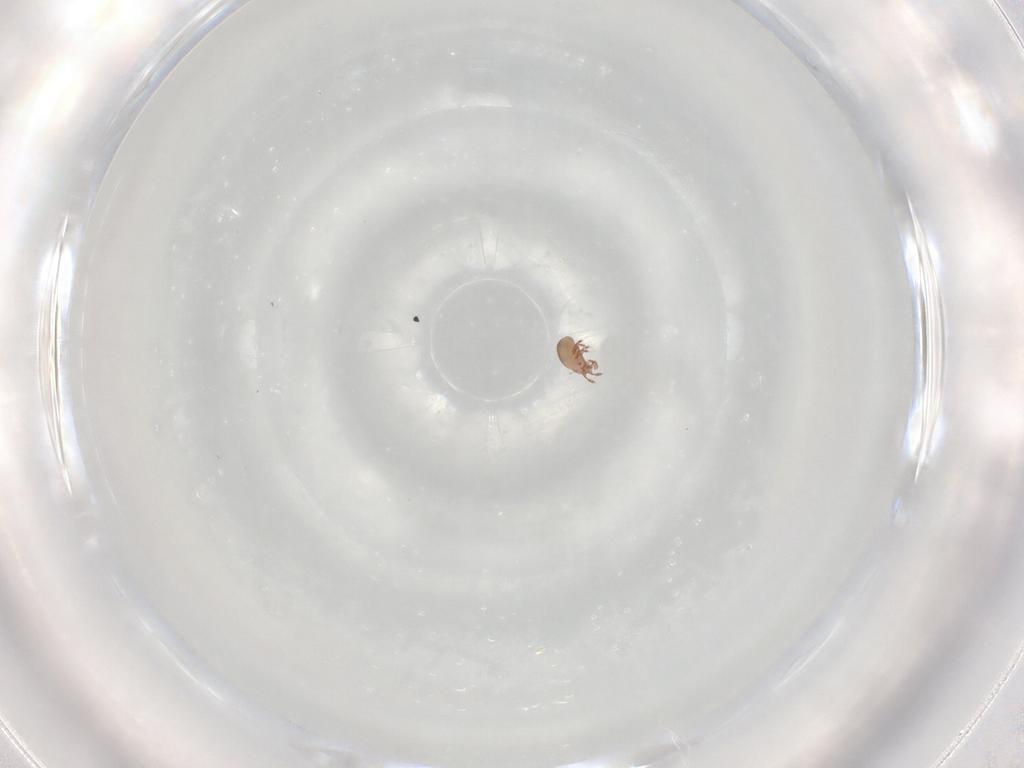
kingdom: Animalia
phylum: Arthropoda
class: Arachnida
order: Sarcoptiformes
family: Eremaeidae
